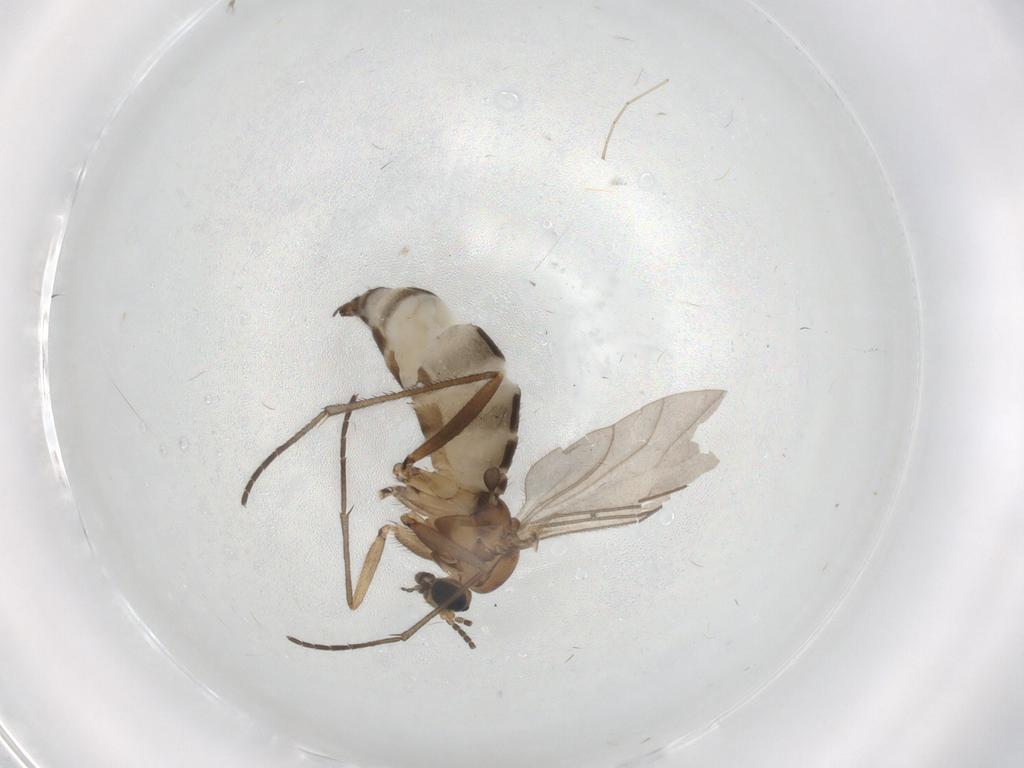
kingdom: Animalia
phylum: Arthropoda
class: Insecta
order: Diptera
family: Sciaridae
